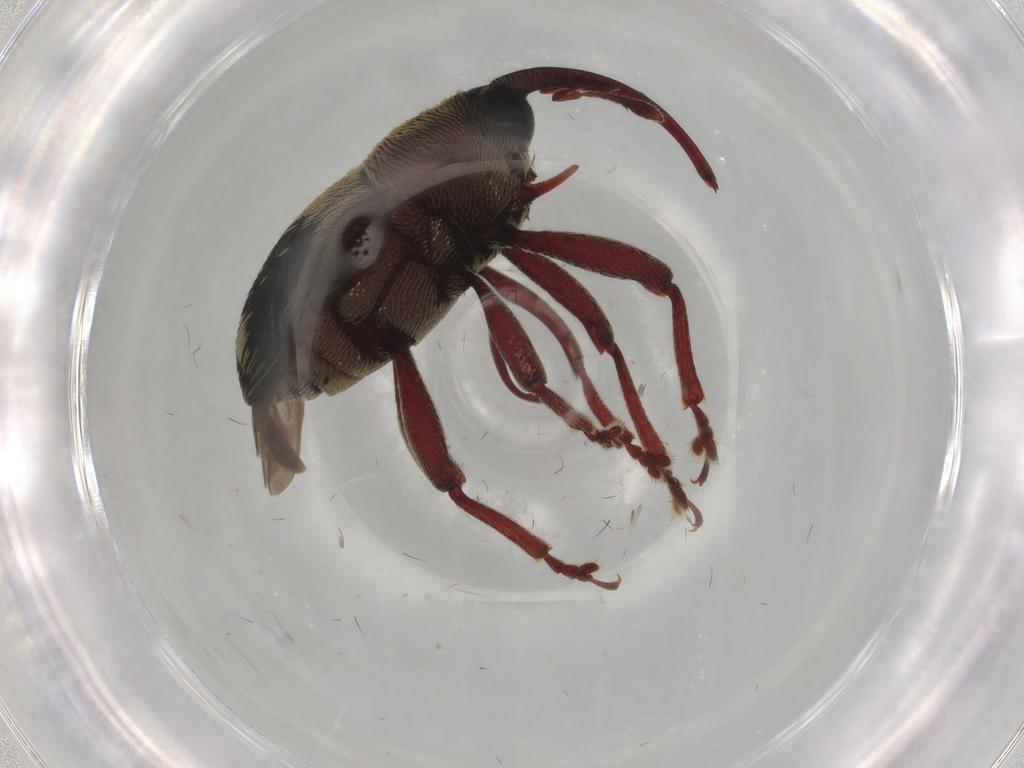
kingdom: Animalia
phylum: Arthropoda
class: Insecta
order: Coleoptera
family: Curculionidae
